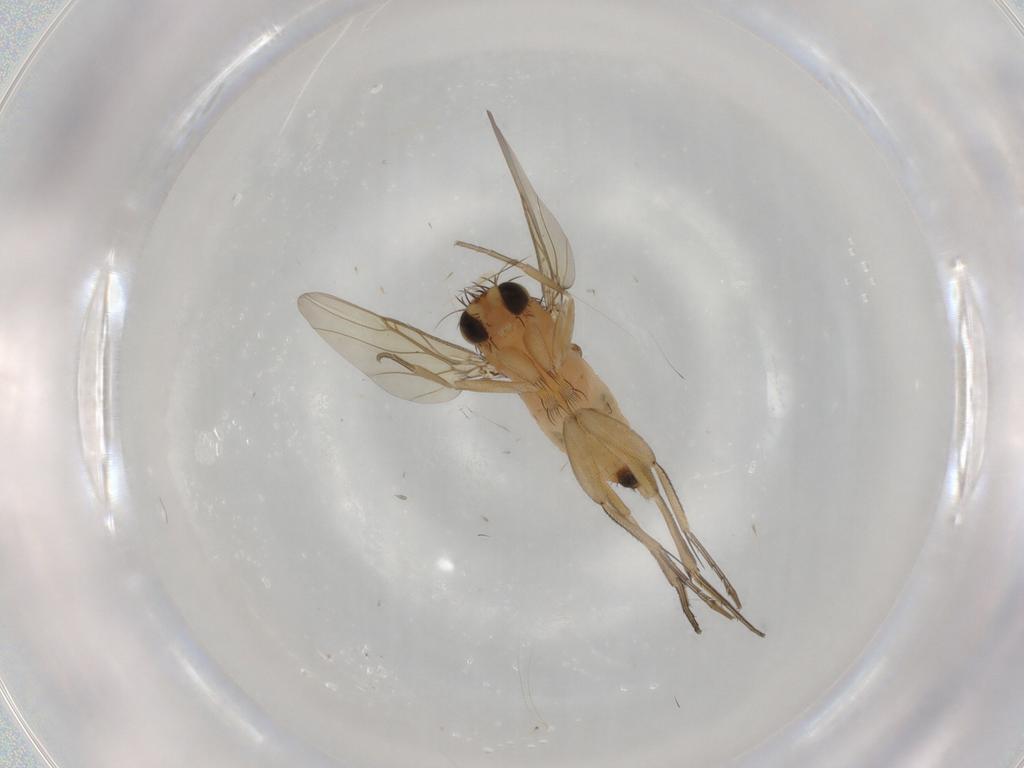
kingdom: Animalia
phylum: Arthropoda
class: Insecta
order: Diptera
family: Phoridae
